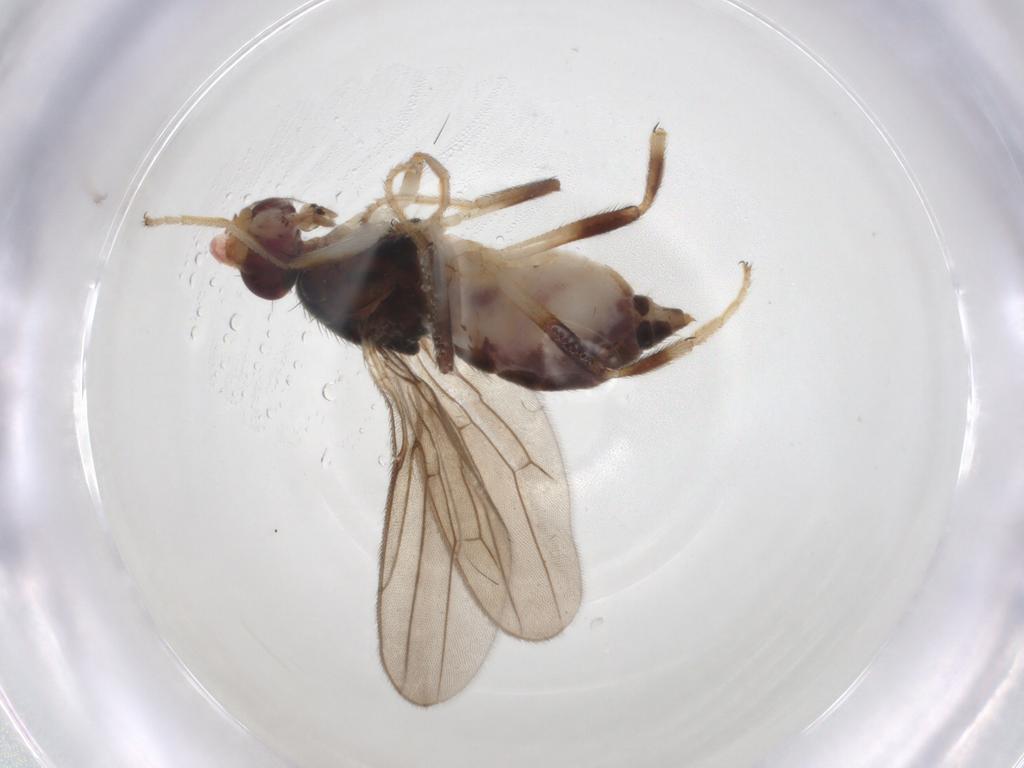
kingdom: Animalia
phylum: Arthropoda
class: Insecta
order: Diptera
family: Chloropidae
